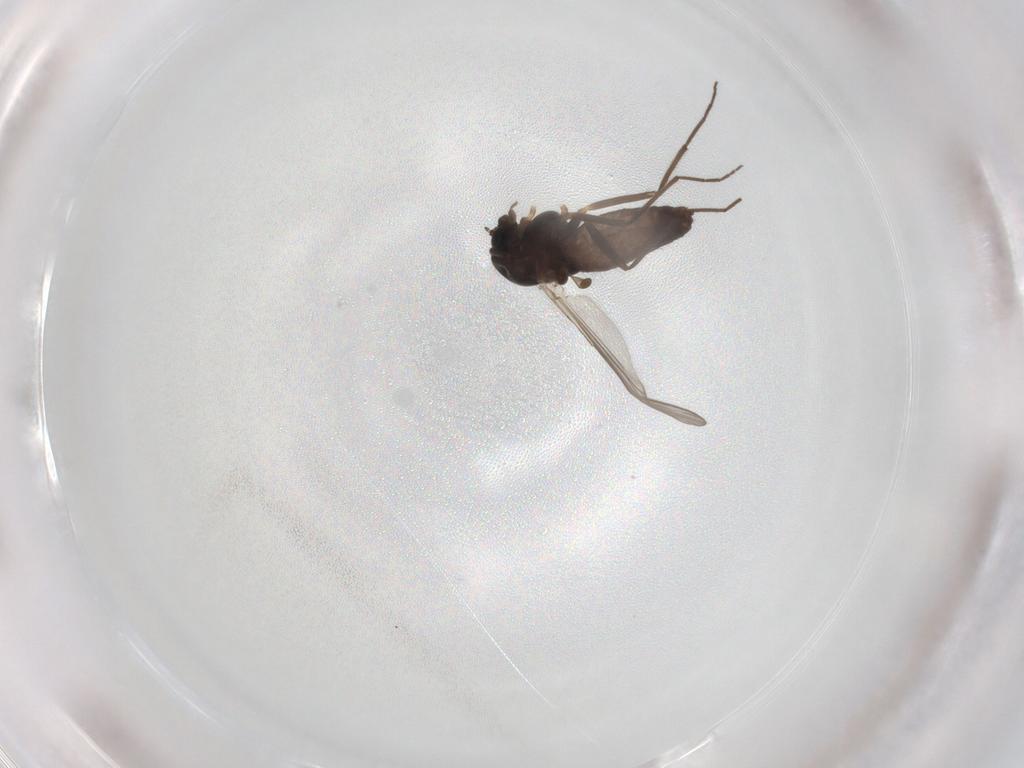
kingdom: Animalia
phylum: Arthropoda
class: Insecta
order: Diptera
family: Chironomidae
